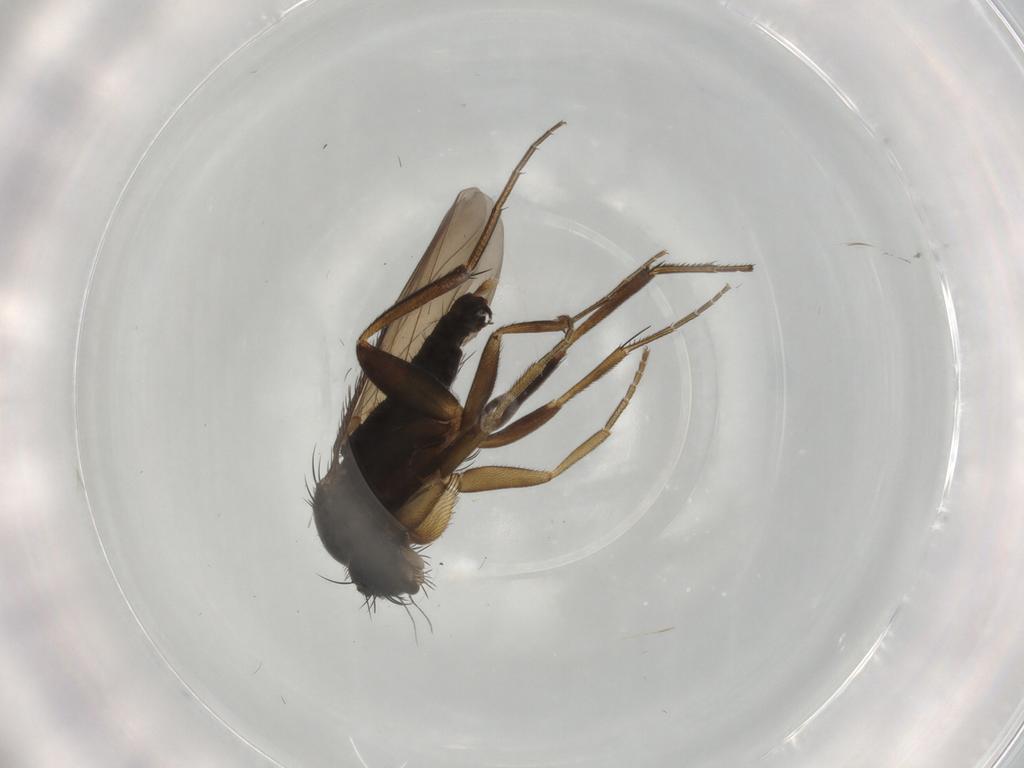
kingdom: Animalia
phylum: Arthropoda
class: Insecta
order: Diptera
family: Phoridae
